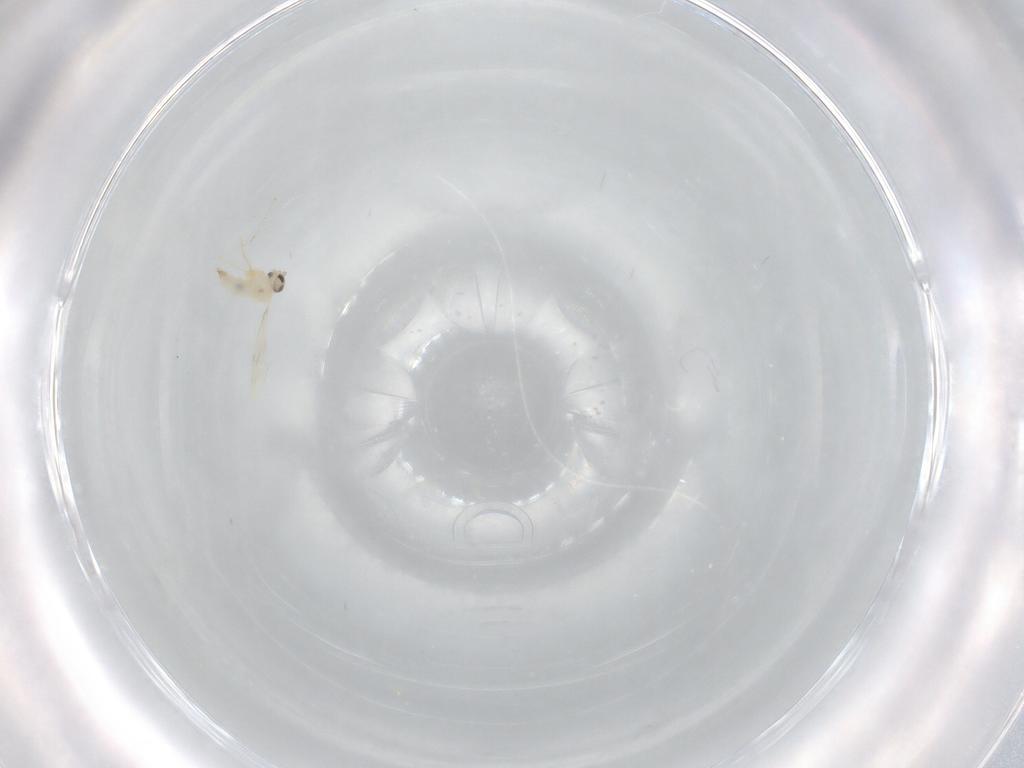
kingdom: Animalia
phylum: Arthropoda
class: Insecta
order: Diptera
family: Cecidomyiidae
